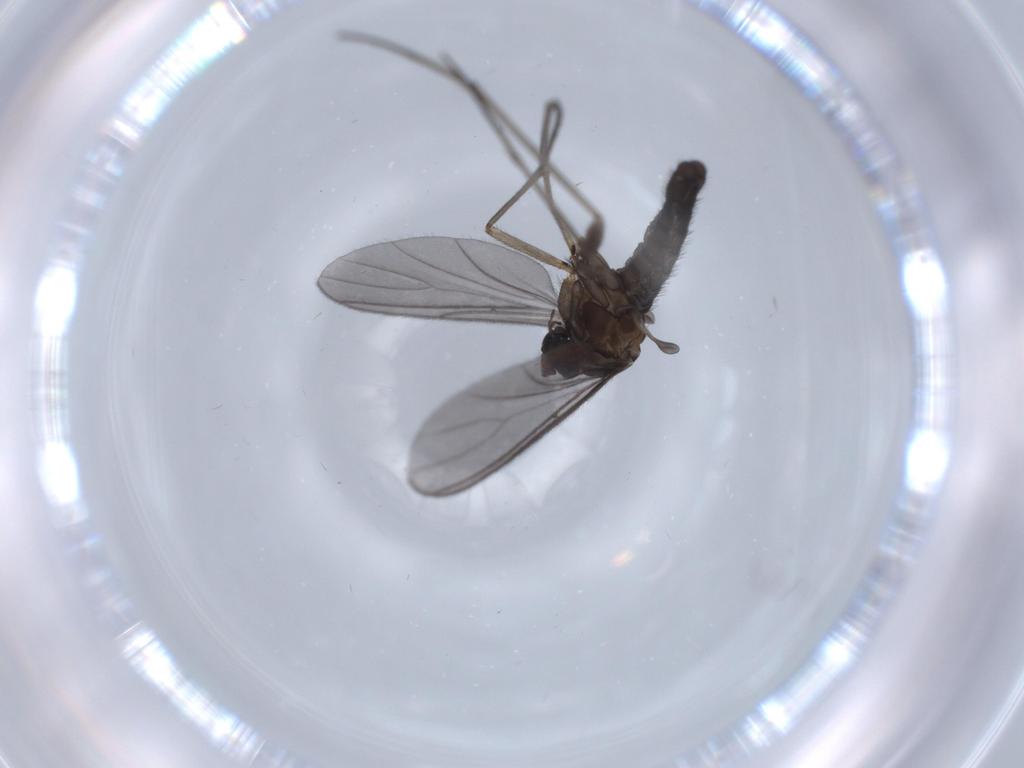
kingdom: Animalia
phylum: Arthropoda
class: Insecta
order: Diptera
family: Sciaridae
